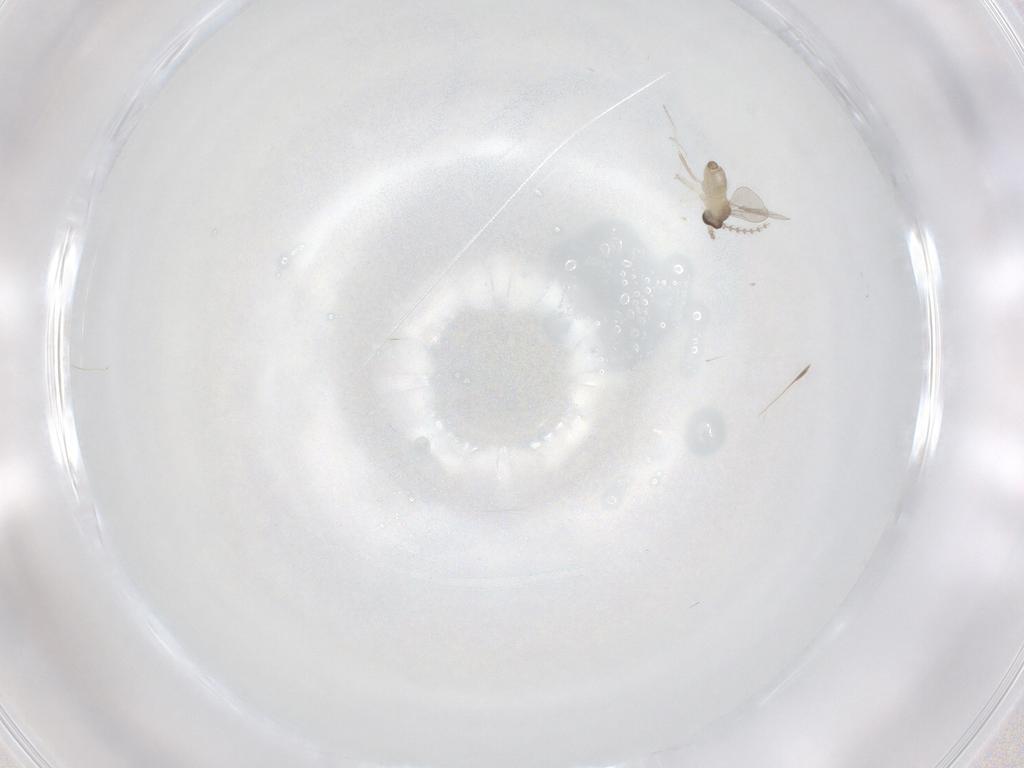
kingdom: Animalia
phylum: Arthropoda
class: Insecta
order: Diptera
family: Cecidomyiidae
